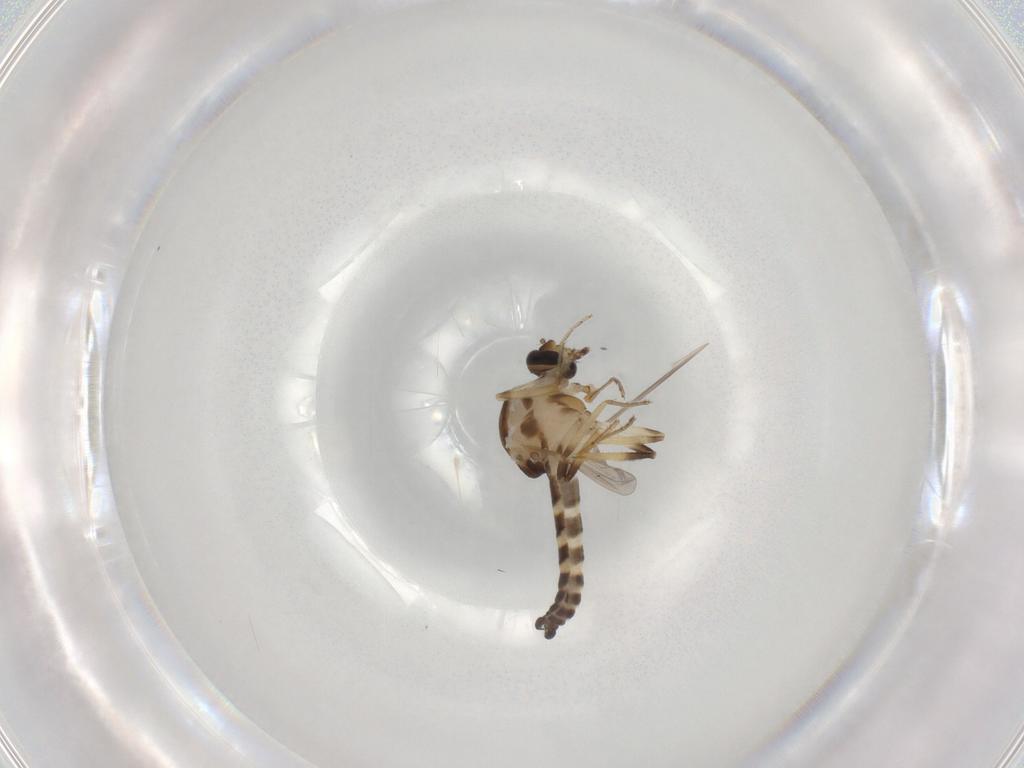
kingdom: Animalia
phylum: Arthropoda
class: Insecta
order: Diptera
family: Ceratopogonidae
